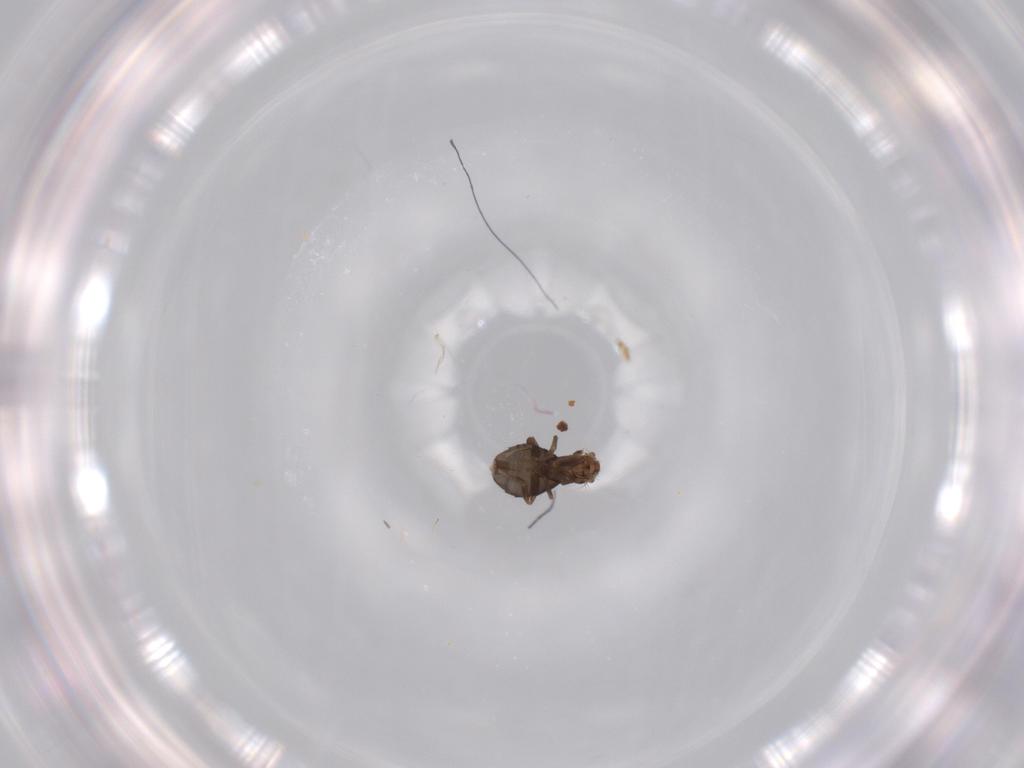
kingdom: Animalia
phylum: Arthropoda
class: Insecta
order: Diptera
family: Phoridae
